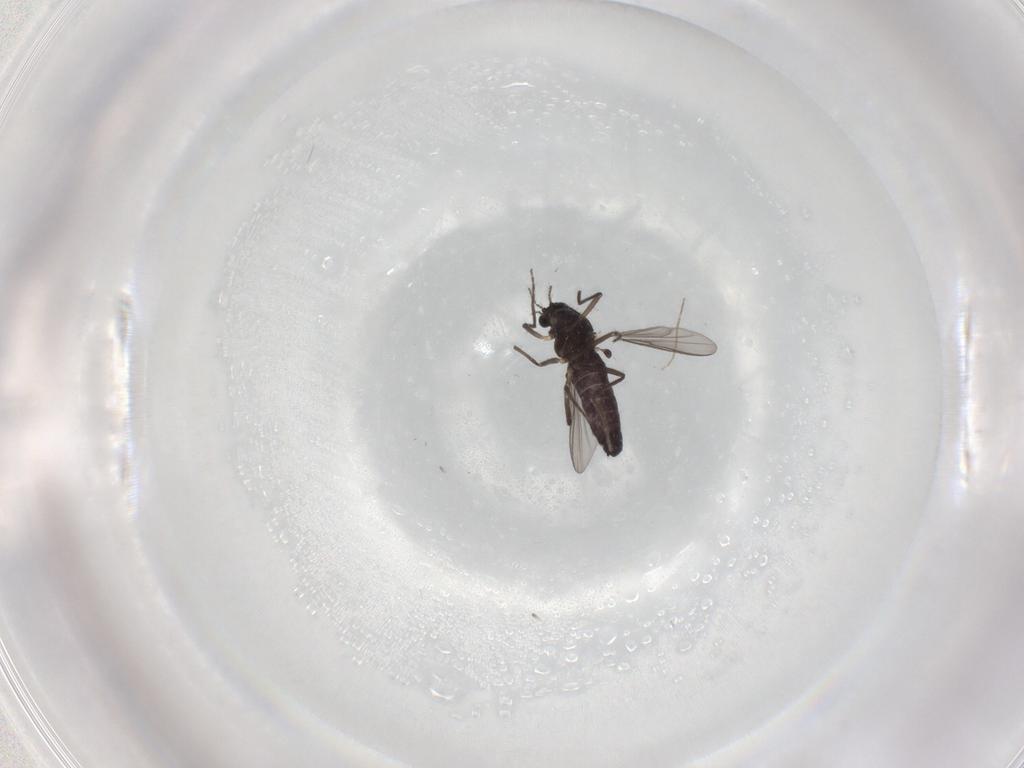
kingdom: Animalia
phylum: Arthropoda
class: Insecta
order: Diptera
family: Chironomidae
